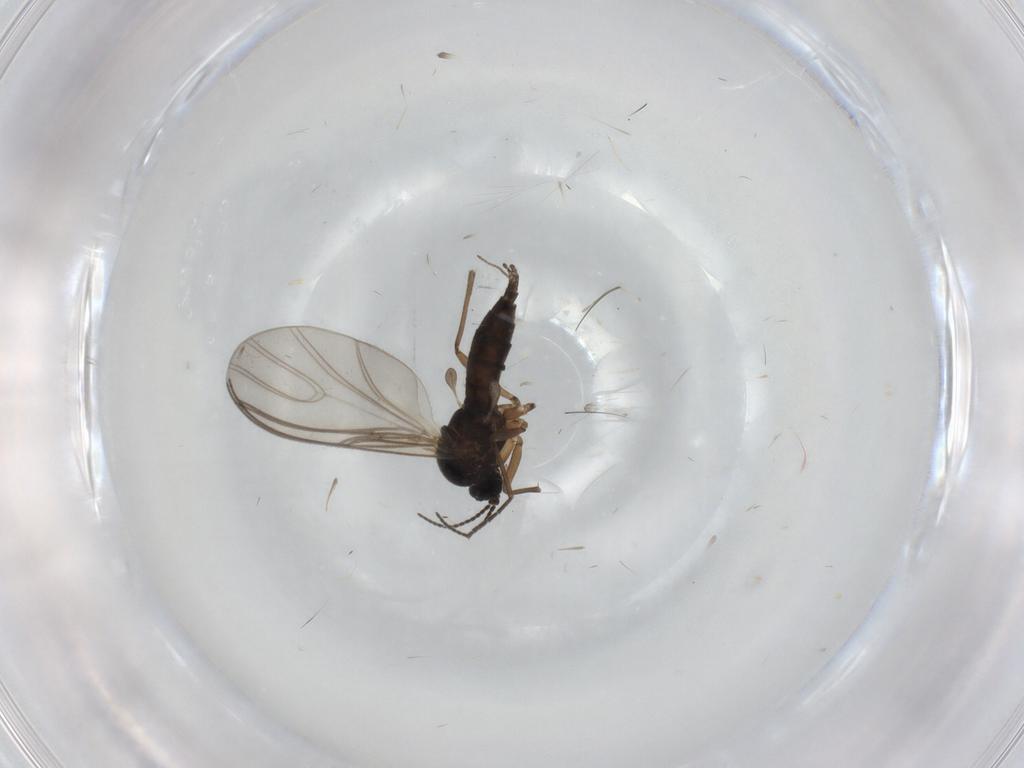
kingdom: Animalia
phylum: Arthropoda
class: Insecta
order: Diptera
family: Sciaridae
